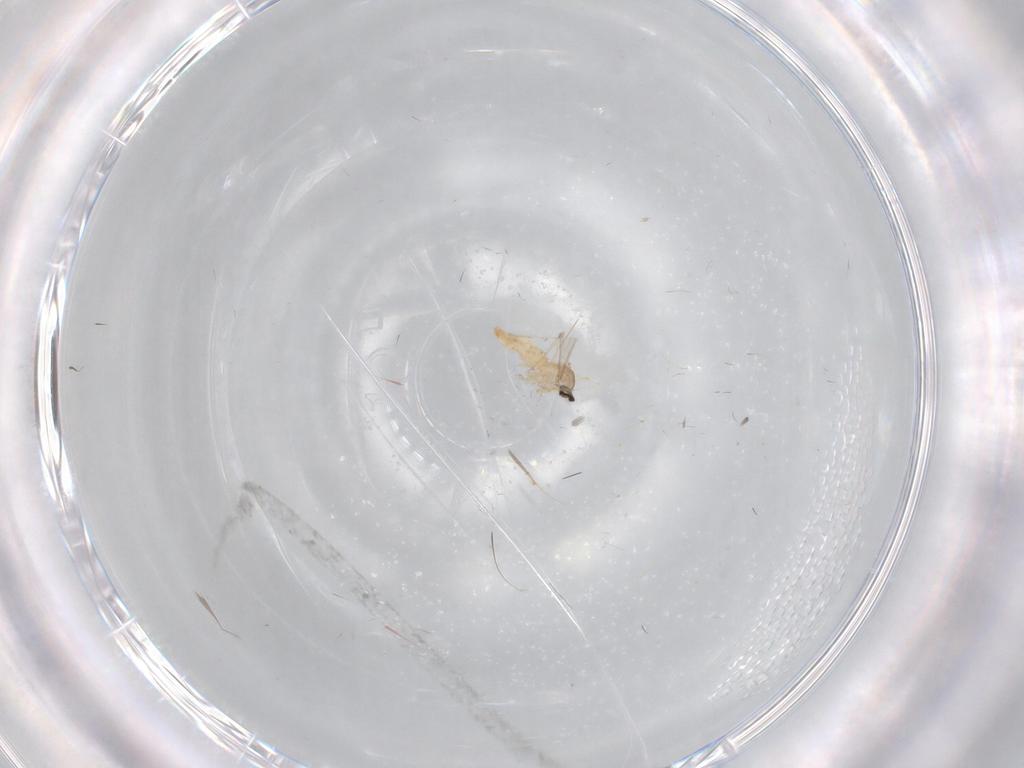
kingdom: Animalia
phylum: Arthropoda
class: Insecta
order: Diptera
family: Cecidomyiidae
